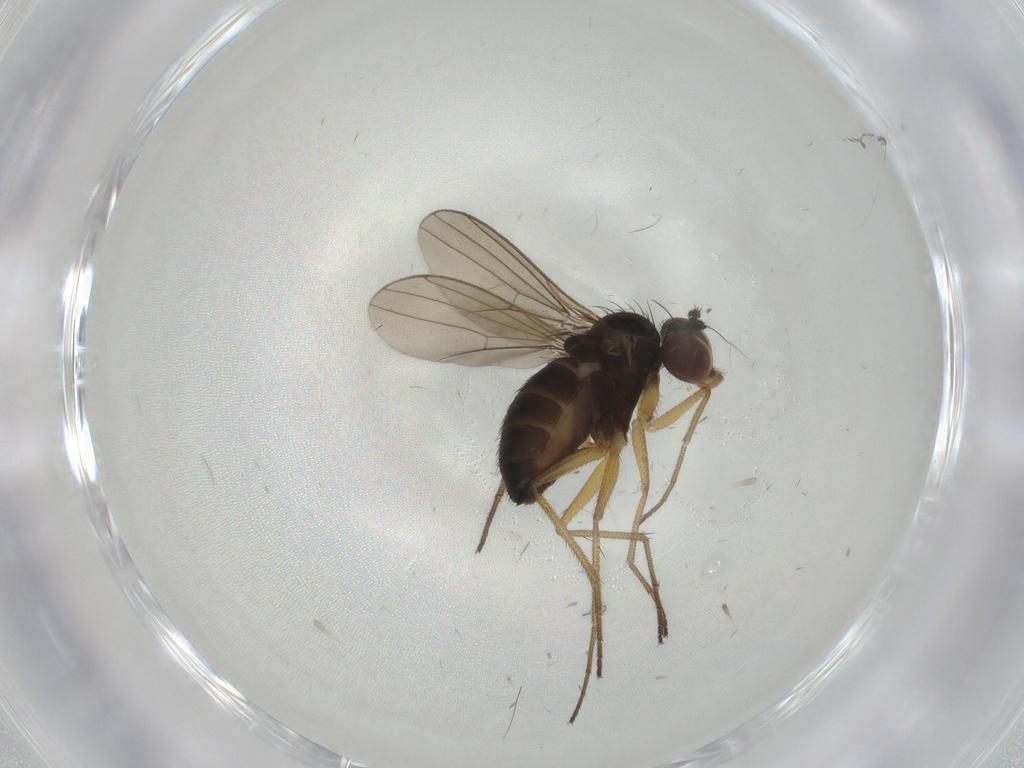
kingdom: Animalia
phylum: Arthropoda
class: Insecta
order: Diptera
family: Dolichopodidae
